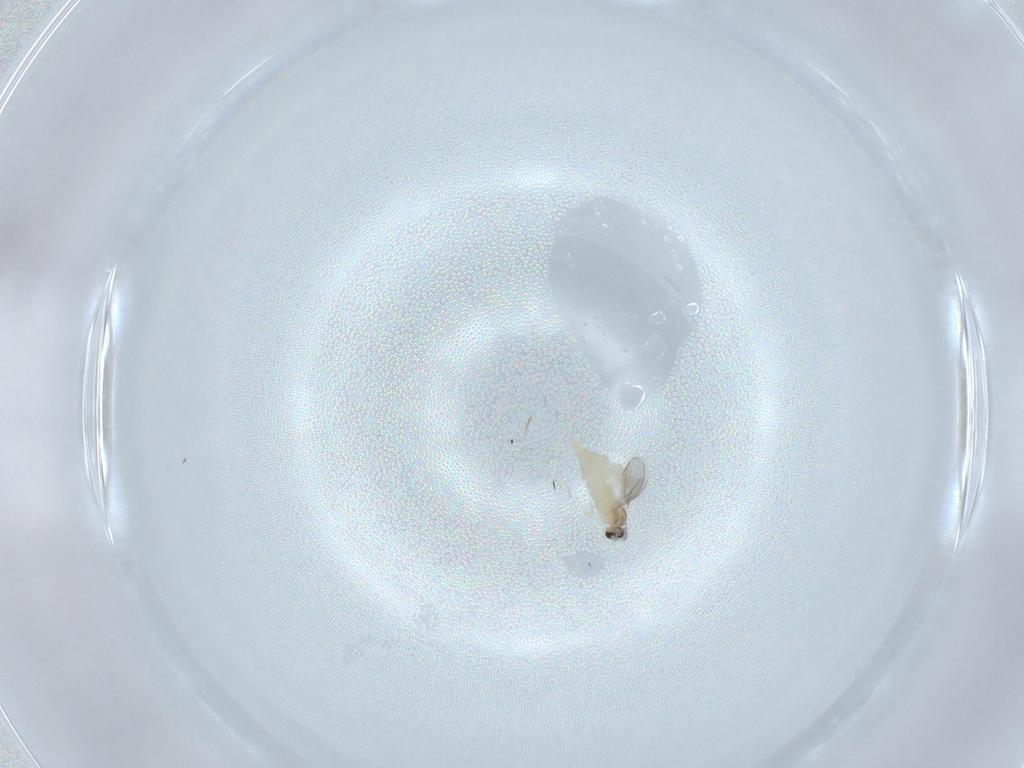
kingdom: Animalia
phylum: Arthropoda
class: Insecta
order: Diptera
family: Cecidomyiidae
